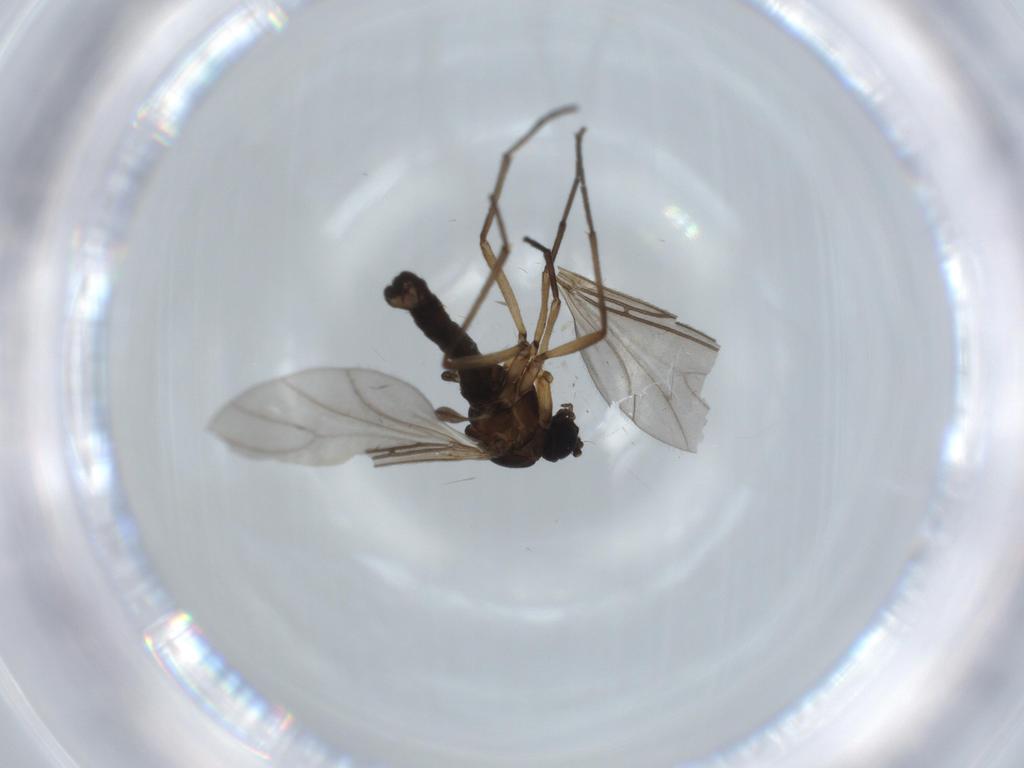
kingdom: Animalia
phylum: Arthropoda
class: Insecta
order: Diptera
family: Sciaridae
